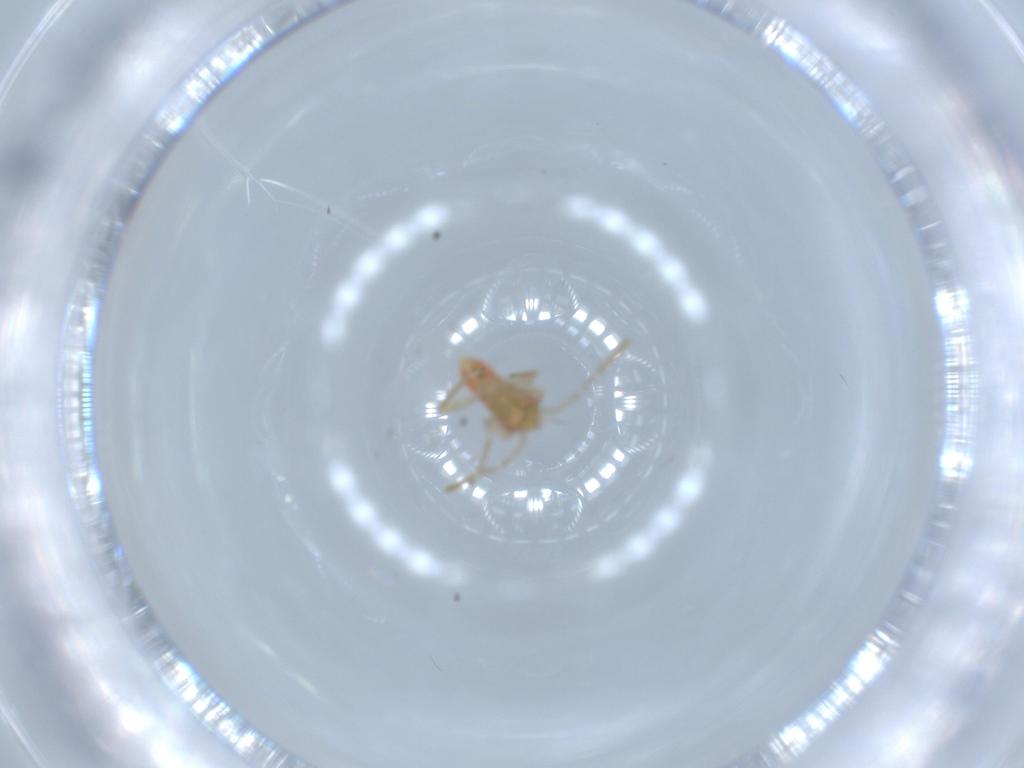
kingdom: Animalia
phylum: Arthropoda
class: Insecta
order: Hemiptera
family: Miridae
